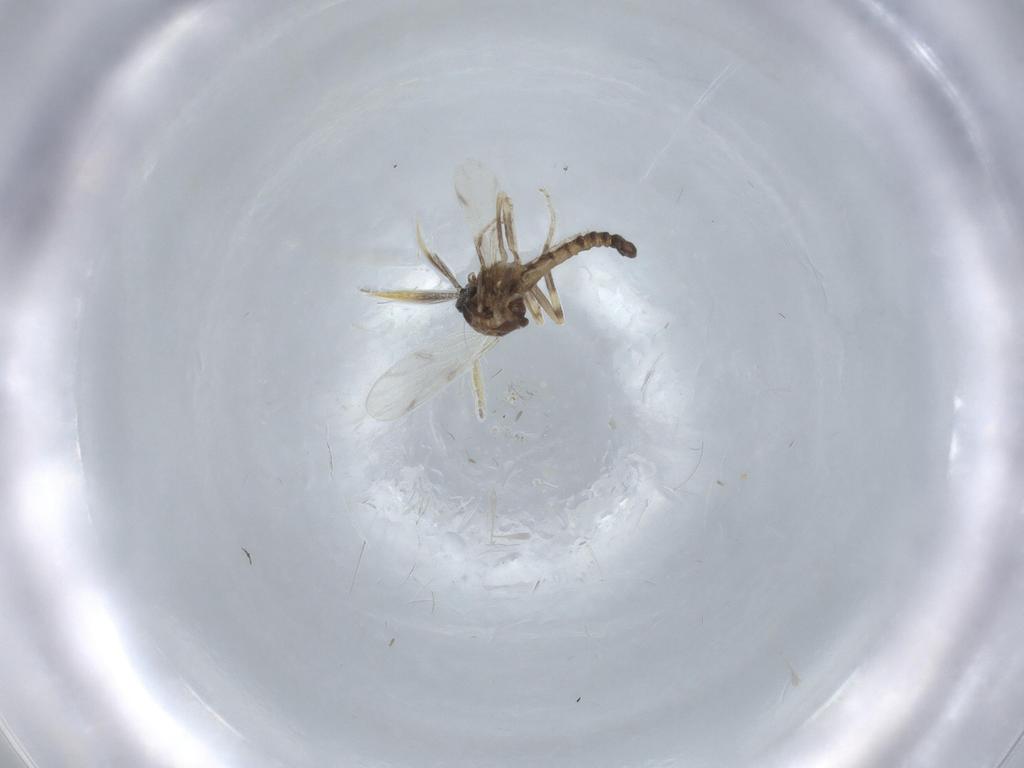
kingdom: Animalia
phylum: Arthropoda
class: Insecta
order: Diptera
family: Ceratopogonidae
